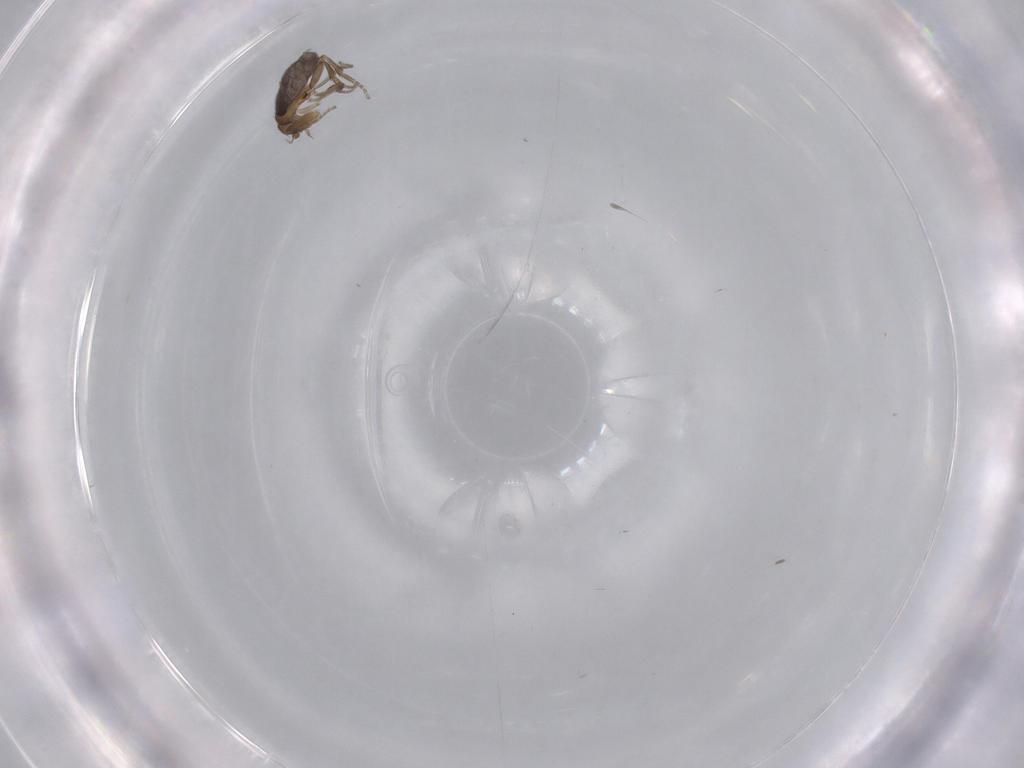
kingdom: Animalia
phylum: Arthropoda
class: Insecta
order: Diptera
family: Phoridae
